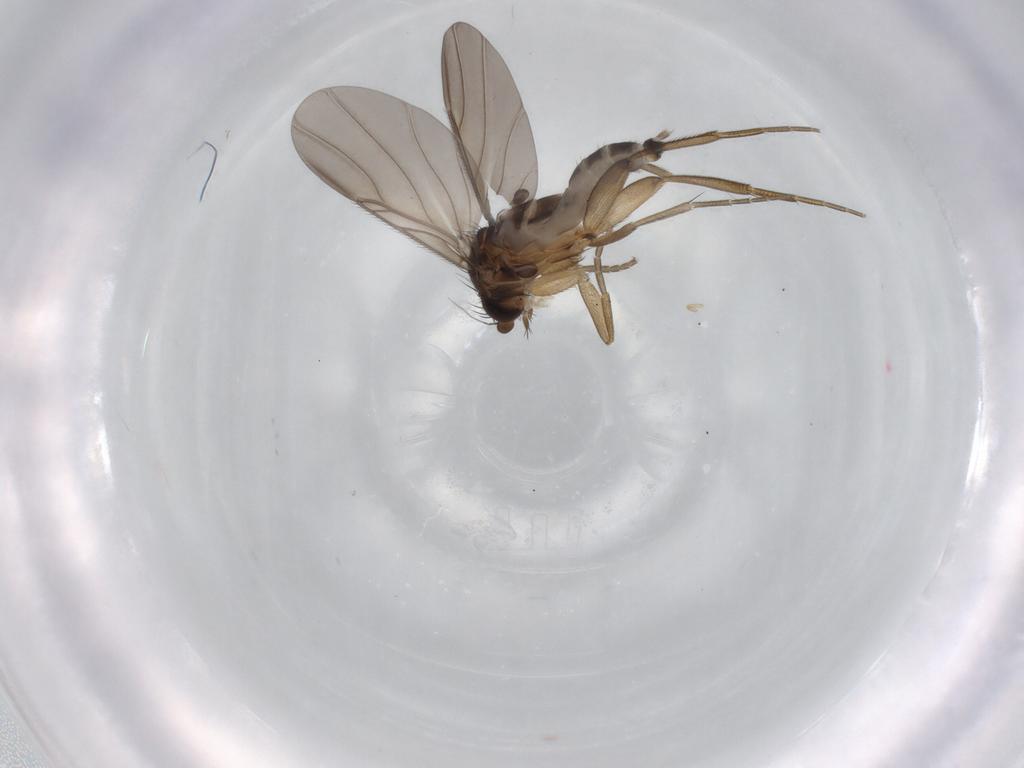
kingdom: Animalia
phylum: Arthropoda
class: Insecta
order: Diptera
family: Phoridae
